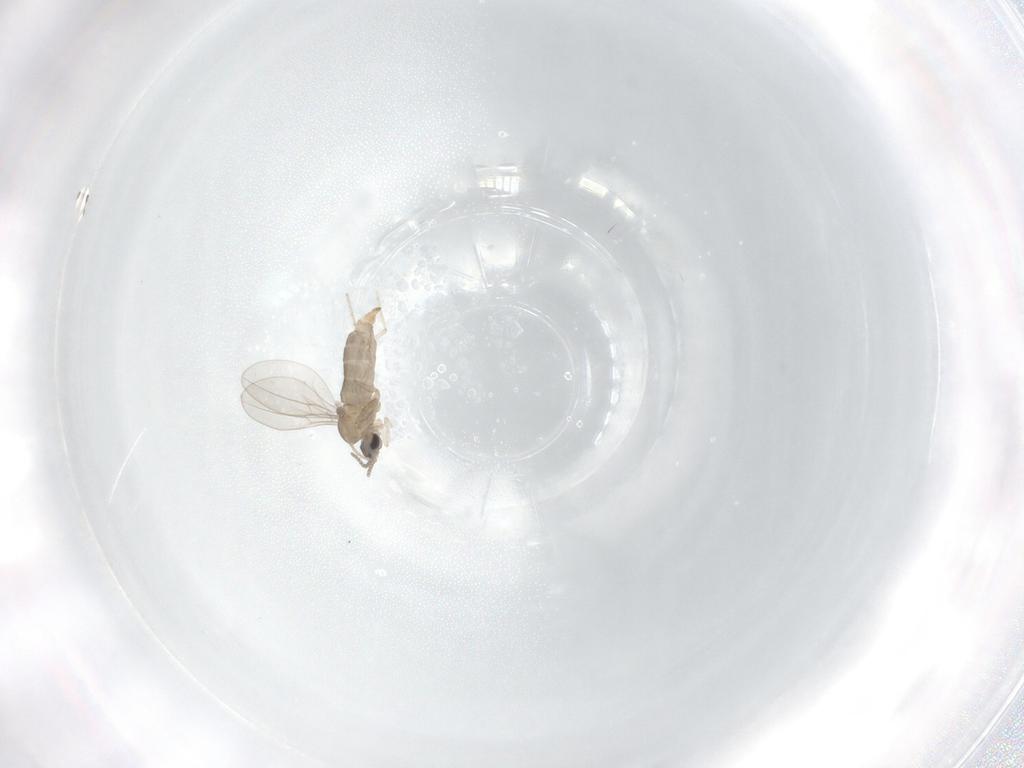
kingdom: Animalia
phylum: Arthropoda
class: Insecta
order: Diptera
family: Cecidomyiidae
